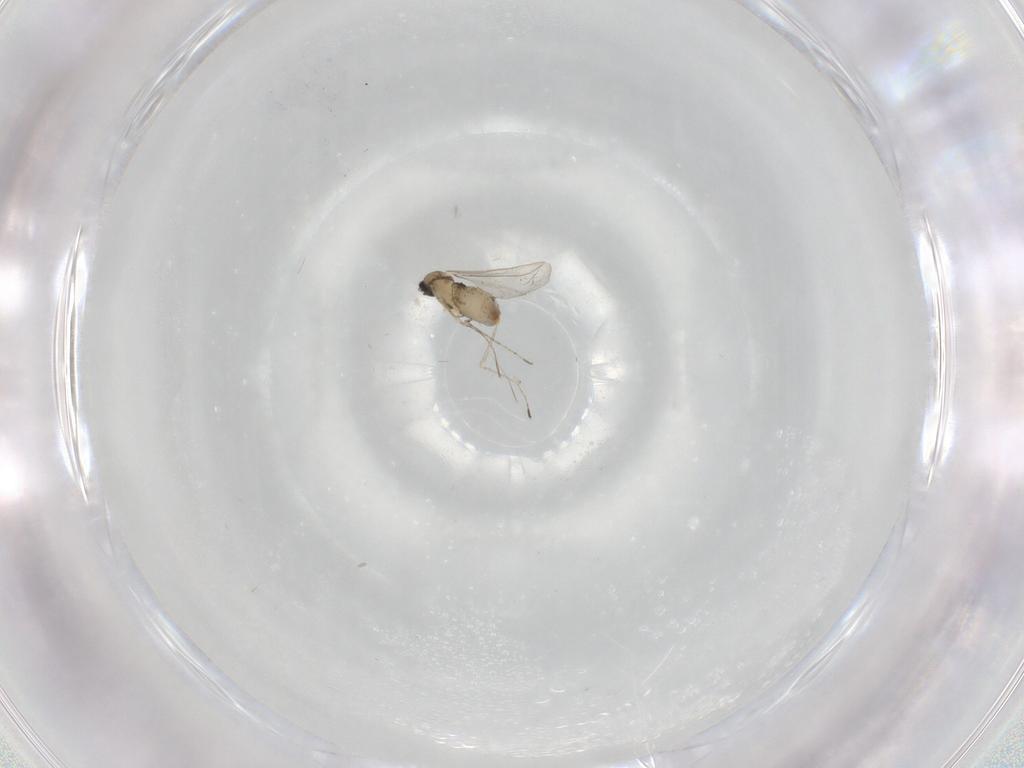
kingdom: Animalia
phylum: Arthropoda
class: Insecta
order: Diptera
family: Cecidomyiidae
